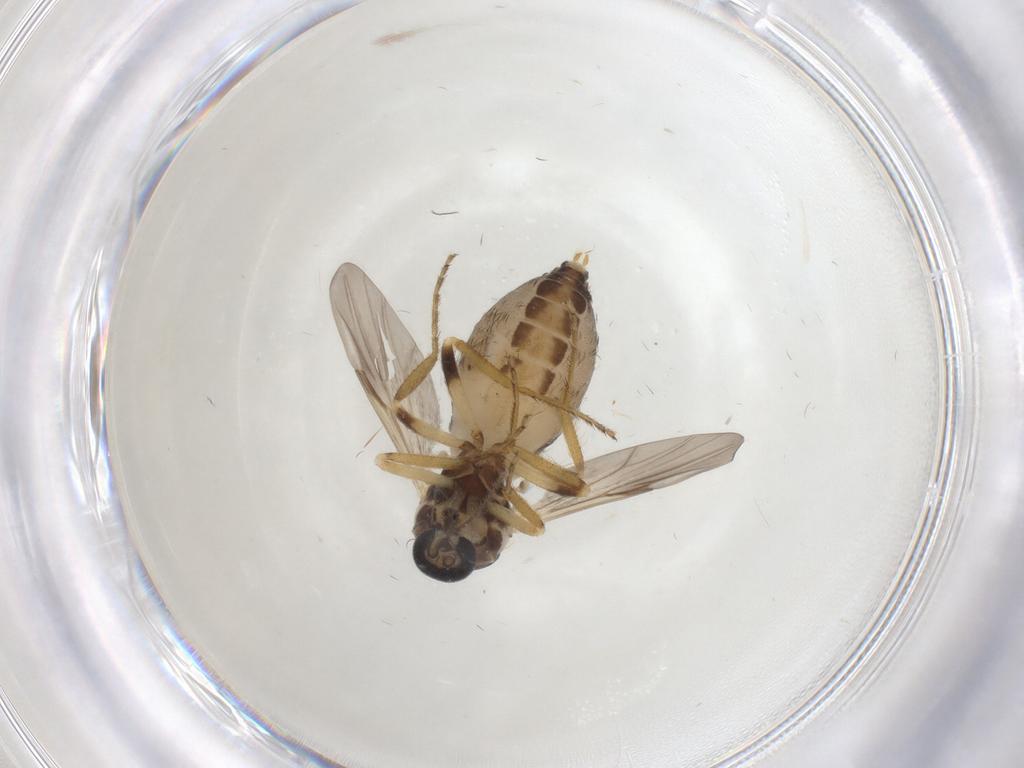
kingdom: Animalia
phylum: Arthropoda
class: Insecta
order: Diptera
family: Ceratopogonidae
